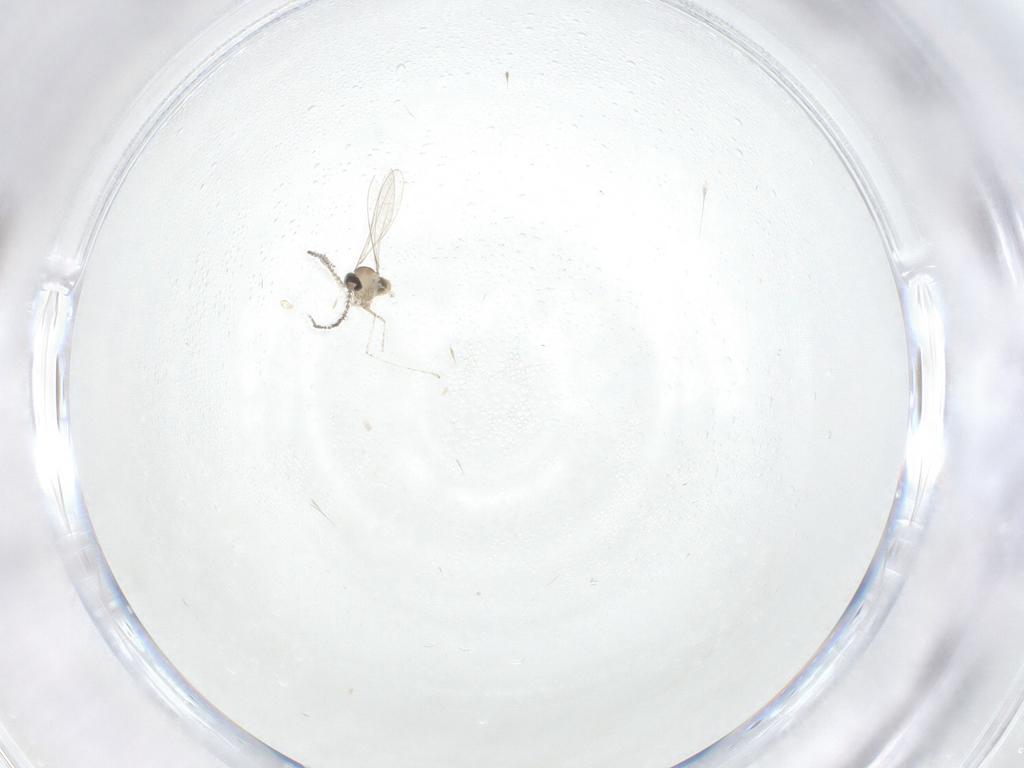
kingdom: Animalia
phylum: Arthropoda
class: Insecta
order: Diptera
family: Cecidomyiidae
